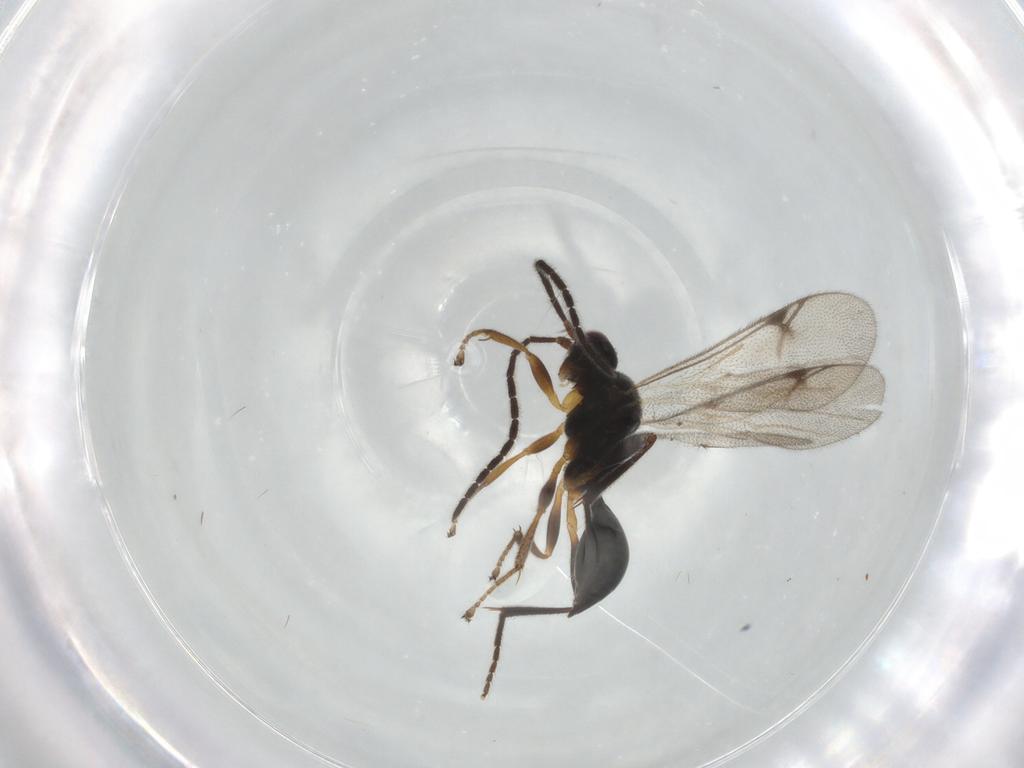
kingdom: Animalia
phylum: Arthropoda
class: Insecta
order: Hymenoptera
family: Proctotrupidae
